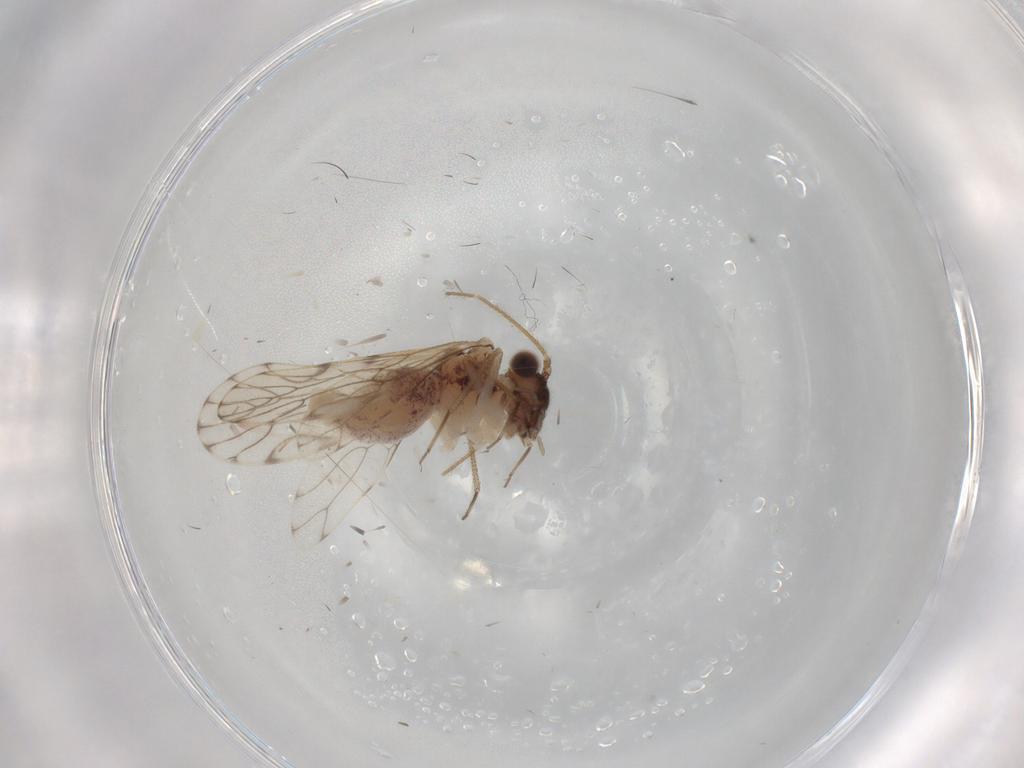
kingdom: Animalia
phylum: Arthropoda
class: Insecta
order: Psocodea
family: Epipsocidae
